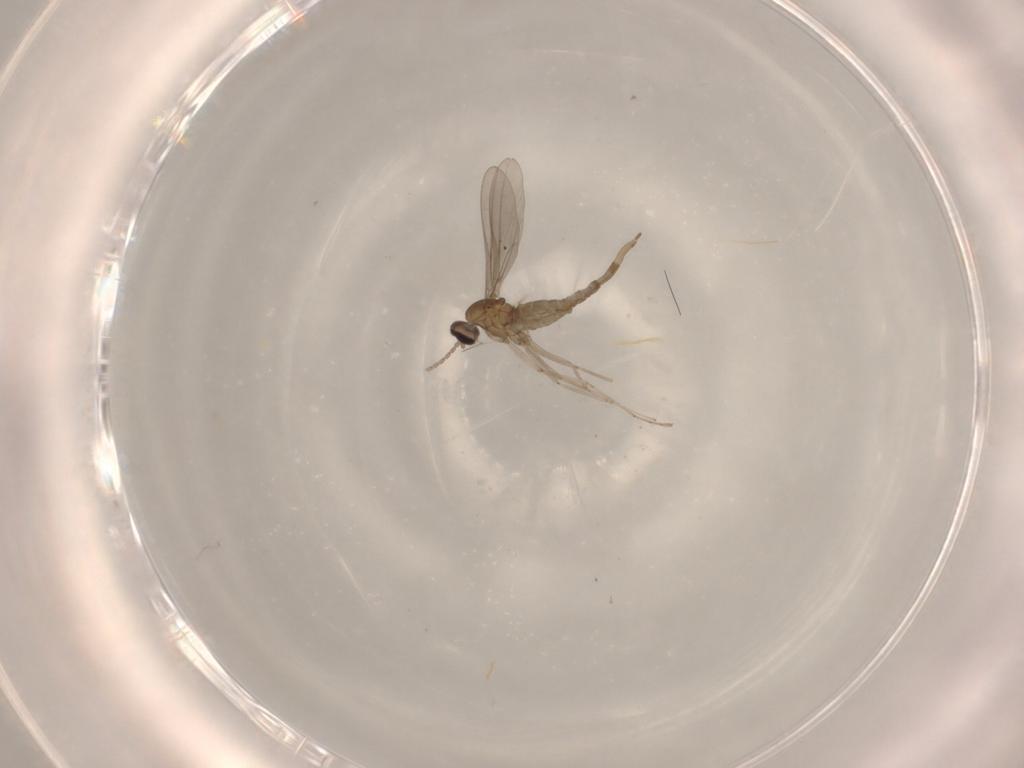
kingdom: Animalia
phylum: Arthropoda
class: Insecta
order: Diptera
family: Cecidomyiidae
